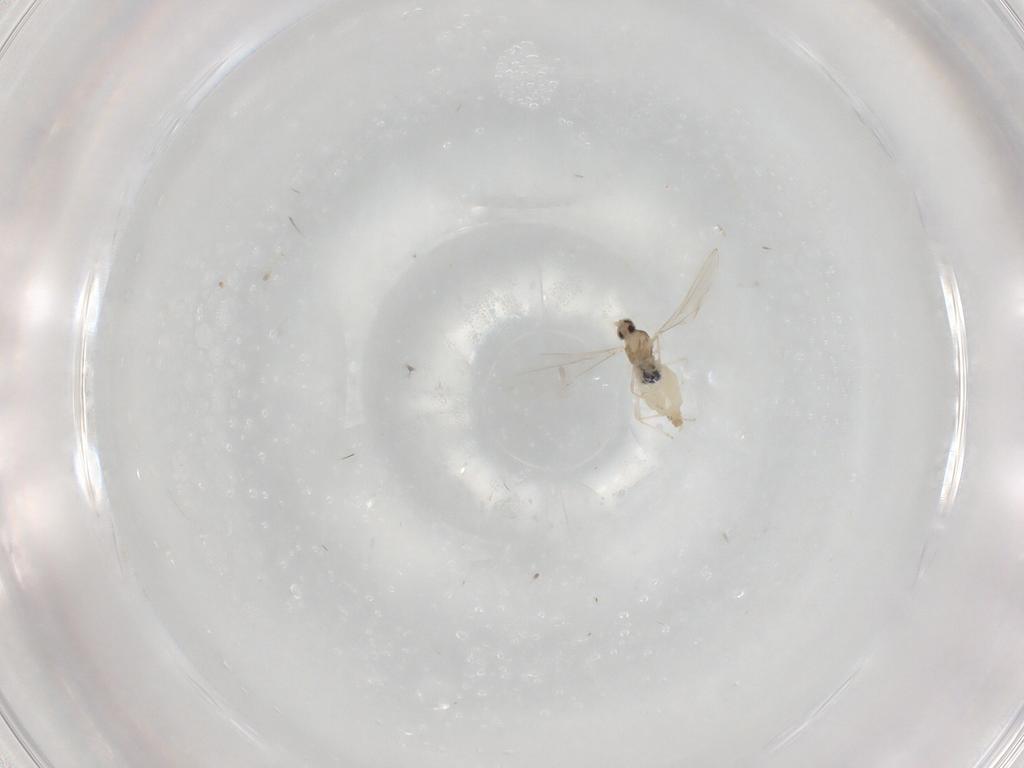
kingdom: Animalia
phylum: Arthropoda
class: Insecta
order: Diptera
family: Cecidomyiidae
